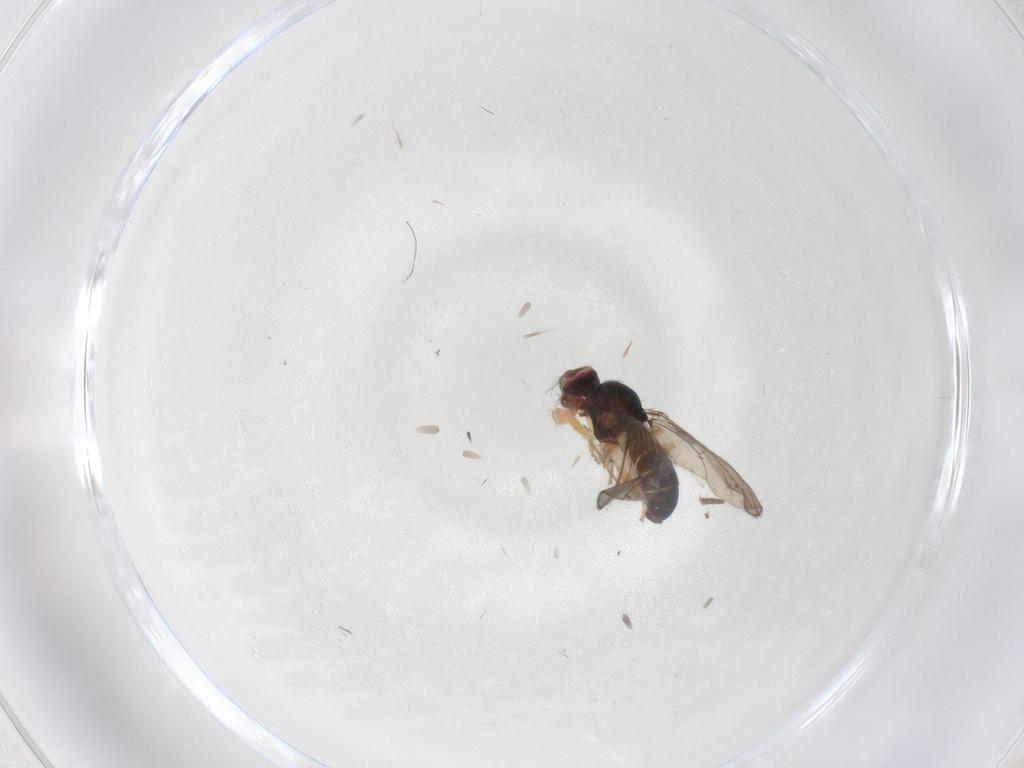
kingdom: Animalia
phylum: Arthropoda
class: Insecta
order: Diptera
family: Drosophilidae
